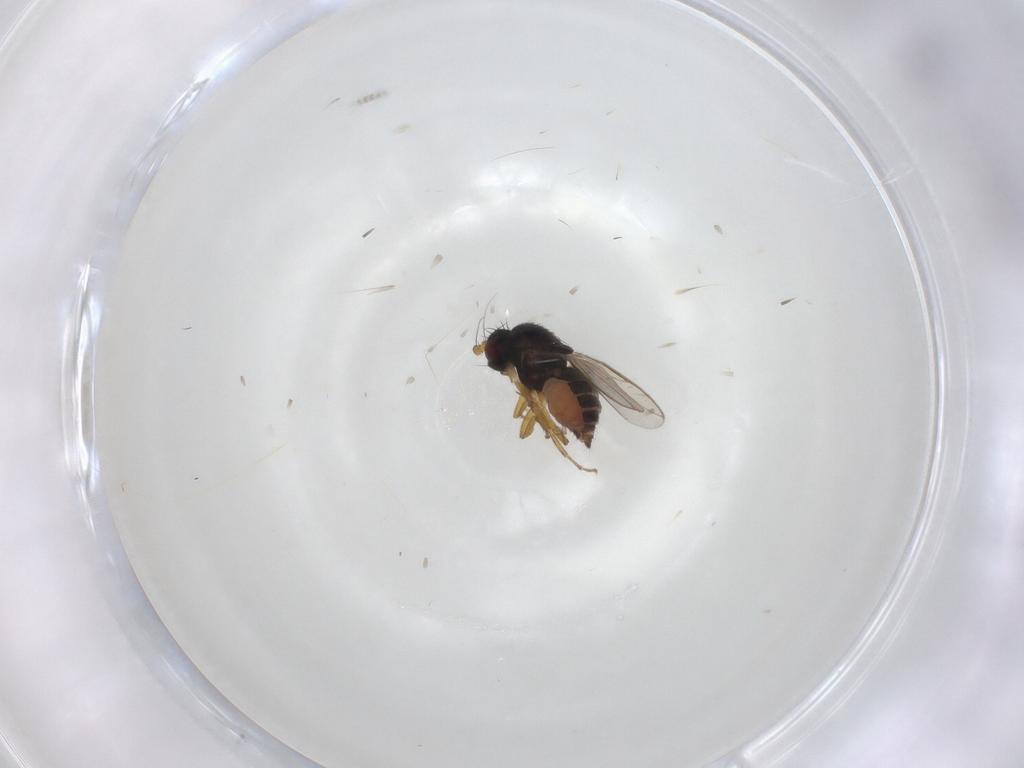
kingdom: Animalia
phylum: Arthropoda
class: Insecta
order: Diptera
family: Sphaeroceridae
